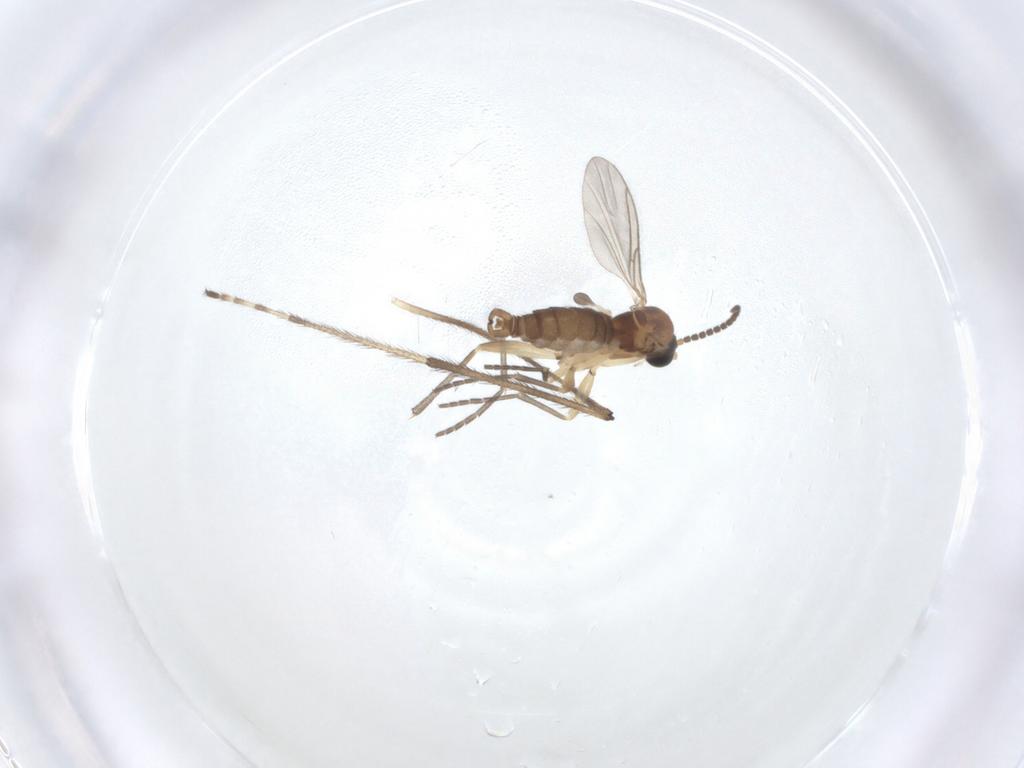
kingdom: Animalia
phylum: Arthropoda
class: Insecta
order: Diptera
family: Limoniidae
